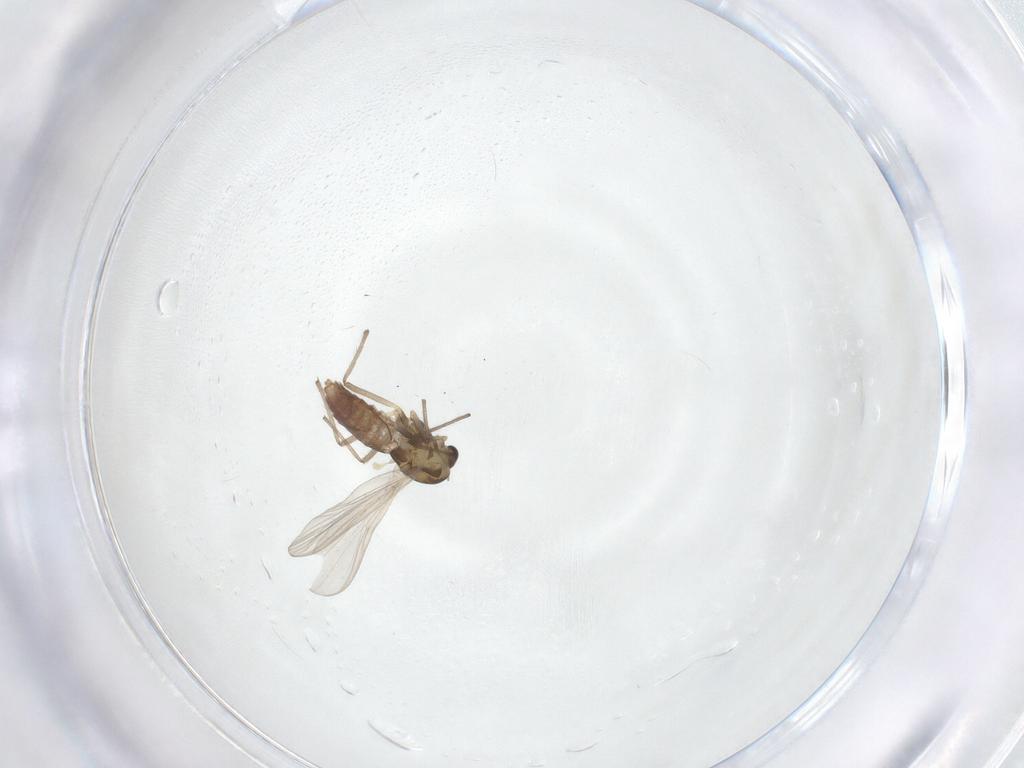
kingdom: Animalia
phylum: Arthropoda
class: Insecta
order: Diptera
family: Chironomidae
